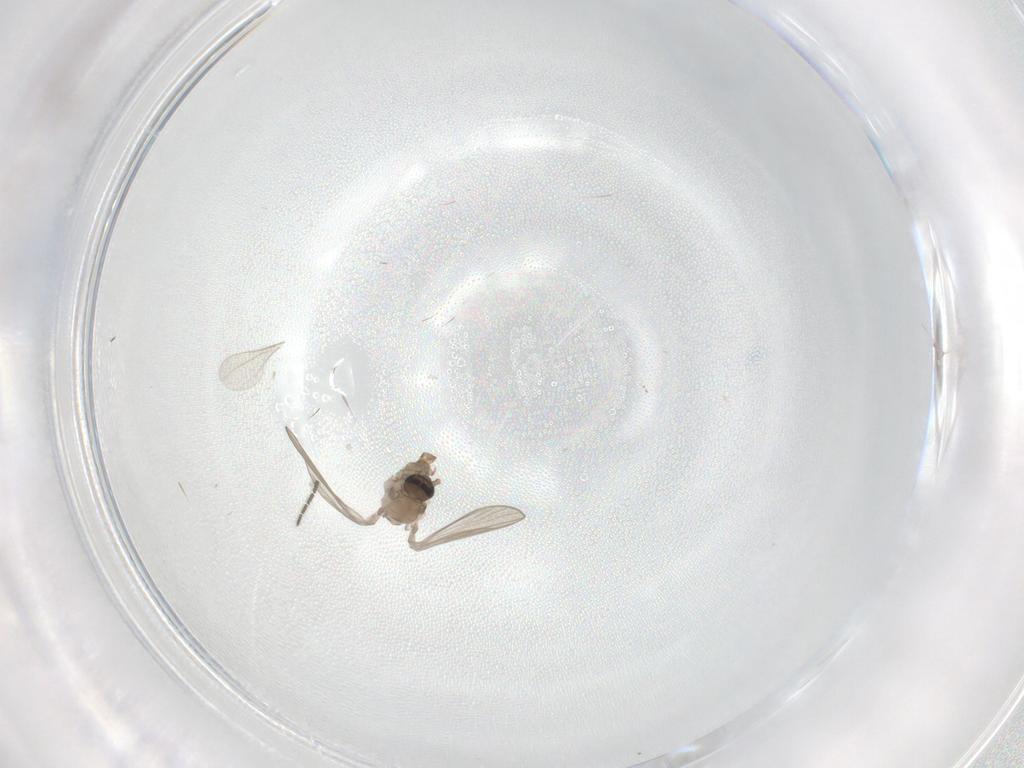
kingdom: Animalia
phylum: Arthropoda
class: Insecta
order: Diptera
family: Psychodidae
